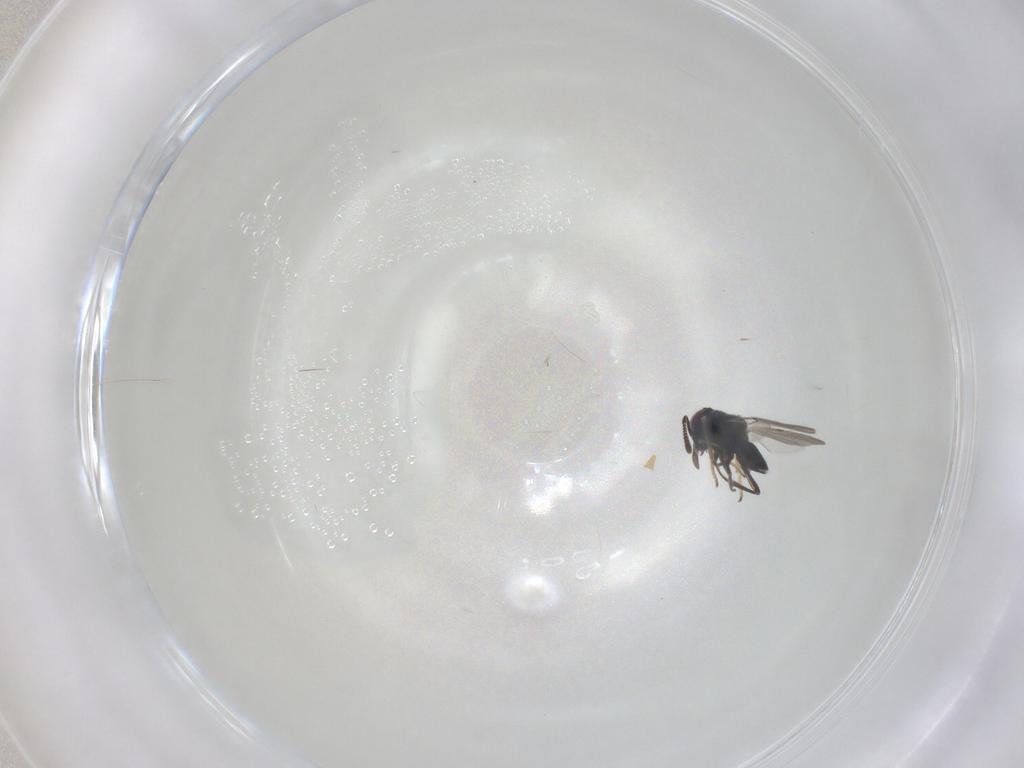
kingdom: Animalia
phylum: Arthropoda
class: Insecta
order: Hymenoptera
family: Encyrtidae
